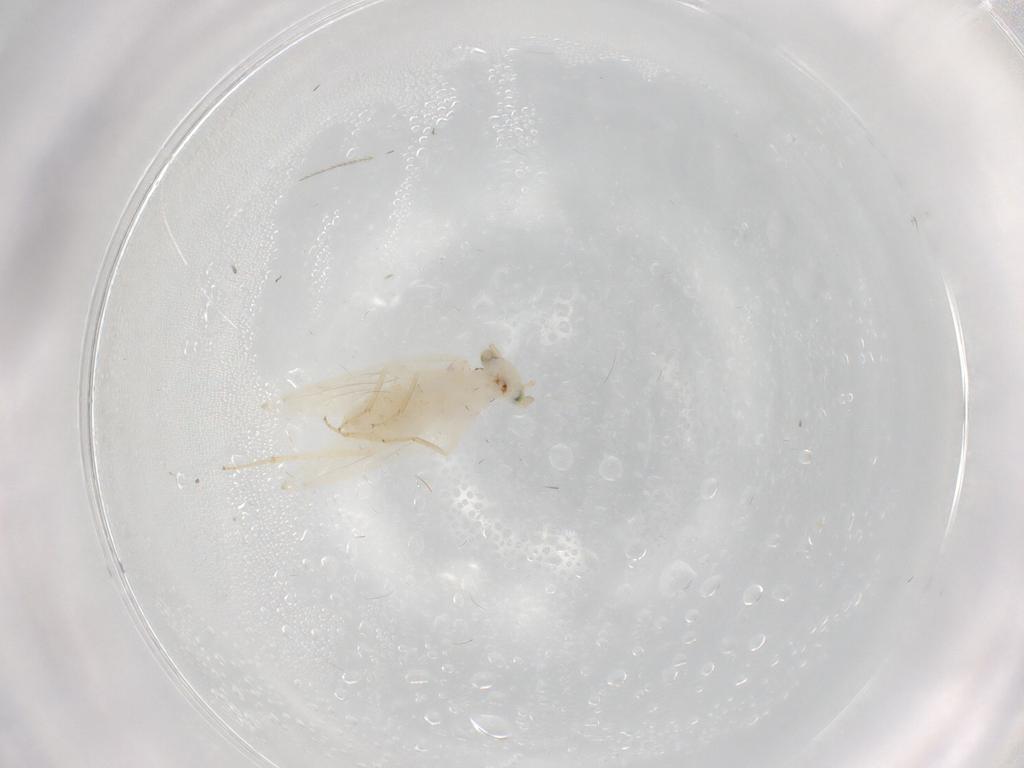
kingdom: Animalia
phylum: Arthropoda
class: Insecta
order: Psocodea
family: Lepidopsocidae
